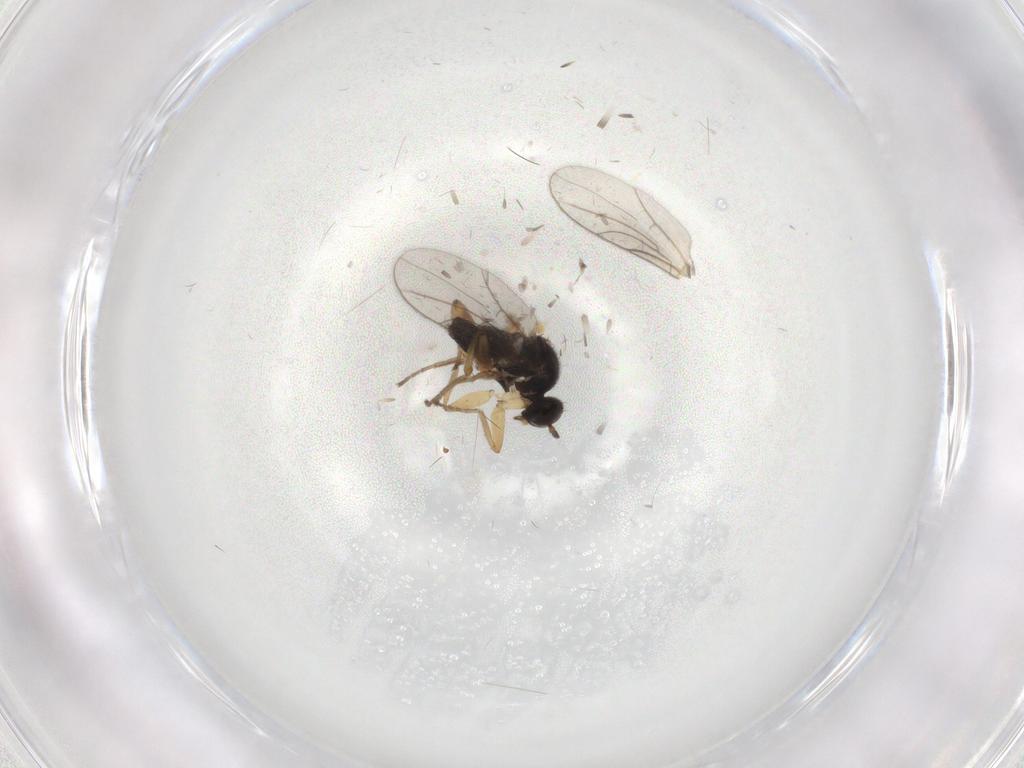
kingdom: Animalia
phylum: Arthropoda
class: Insecta
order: Diptera
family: Hybotidae
